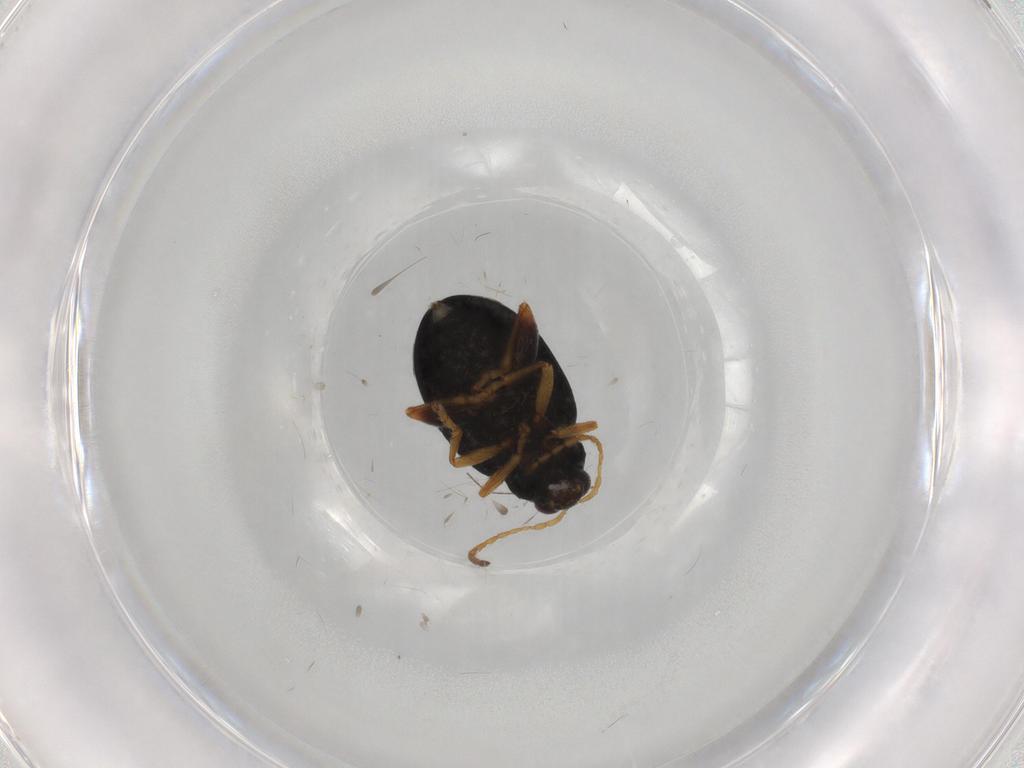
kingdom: Animalia
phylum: Arthropoda
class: Insecta
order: Coleoptera
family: Chrysomelidae
